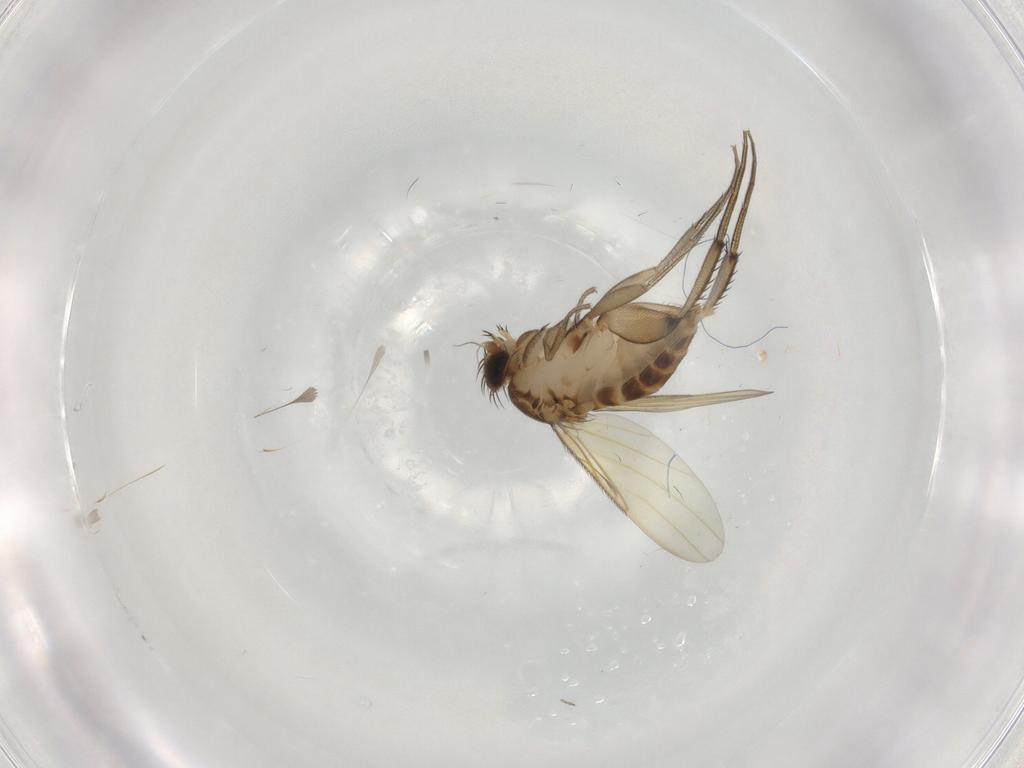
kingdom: Animalia
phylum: Arthropoda
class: Insecta
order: Diptera
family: Phoridae
